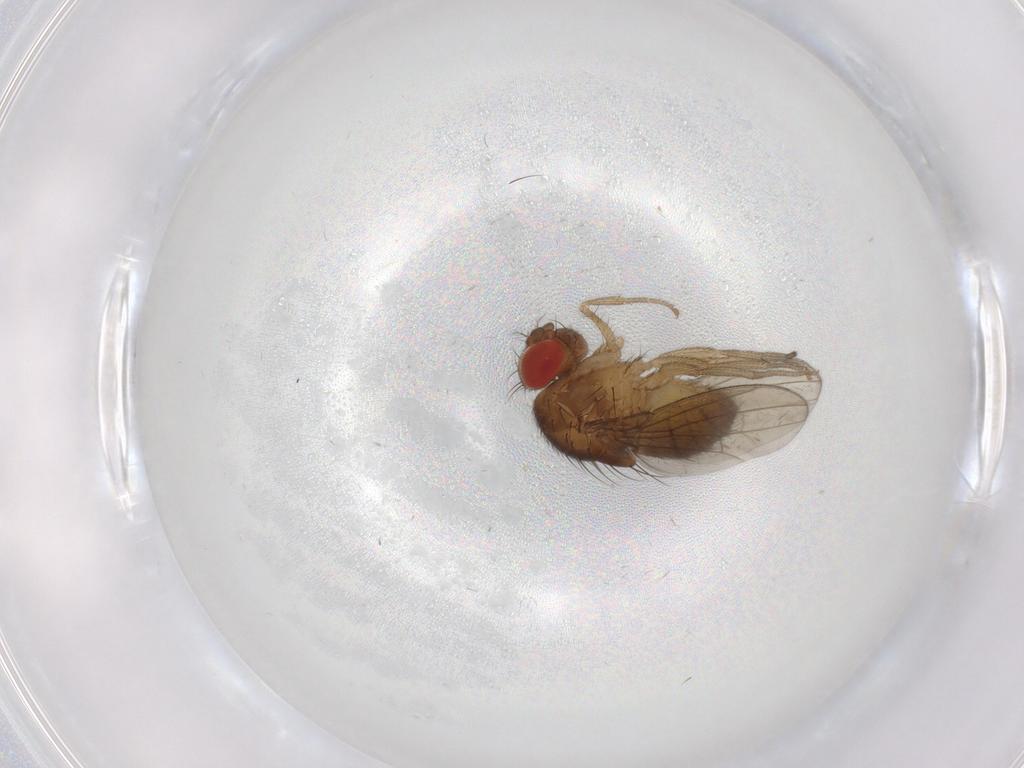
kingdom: Animalia
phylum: Arthropoda
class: Insecta
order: Diptera
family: Drosophilidae
